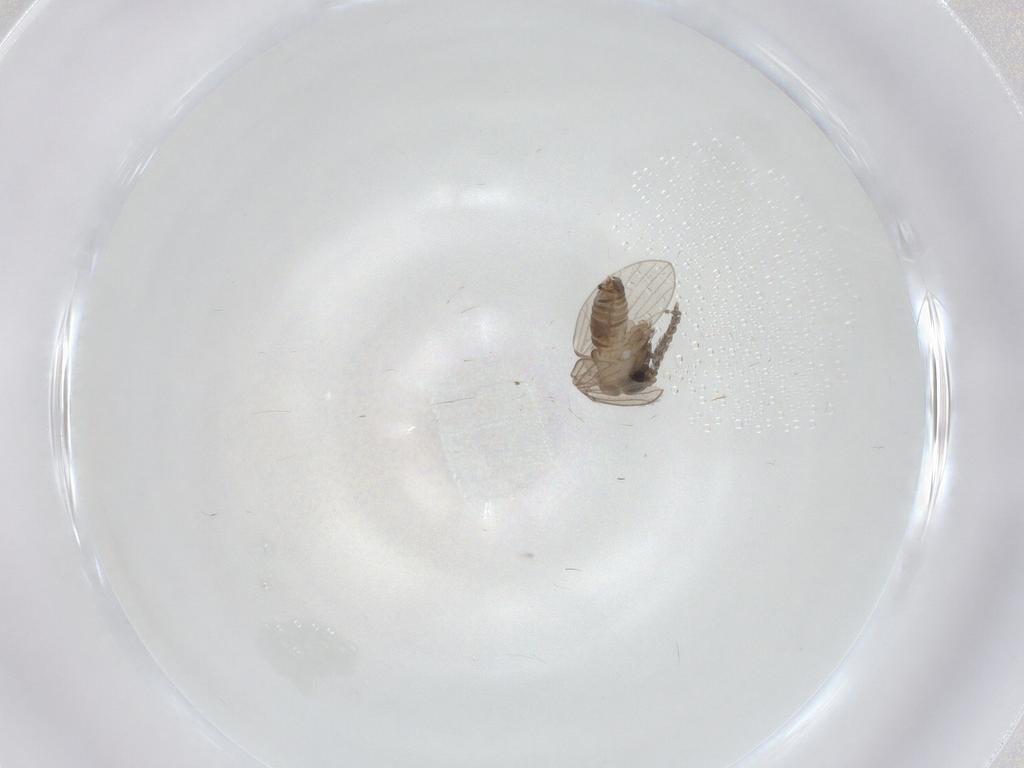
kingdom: Animalia
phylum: Arthropoda
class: Insecta
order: Diptera
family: Psychodidae
